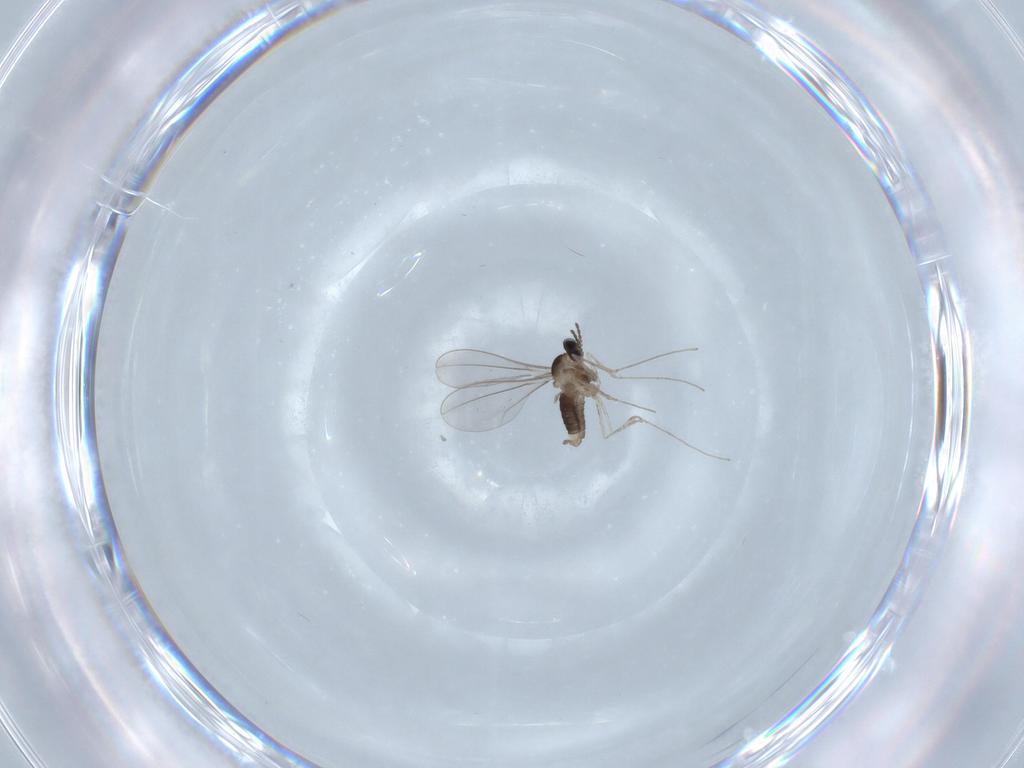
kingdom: Animalia
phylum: Arthropoda
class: Insecta
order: Diptera
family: Cecidomyiidae
